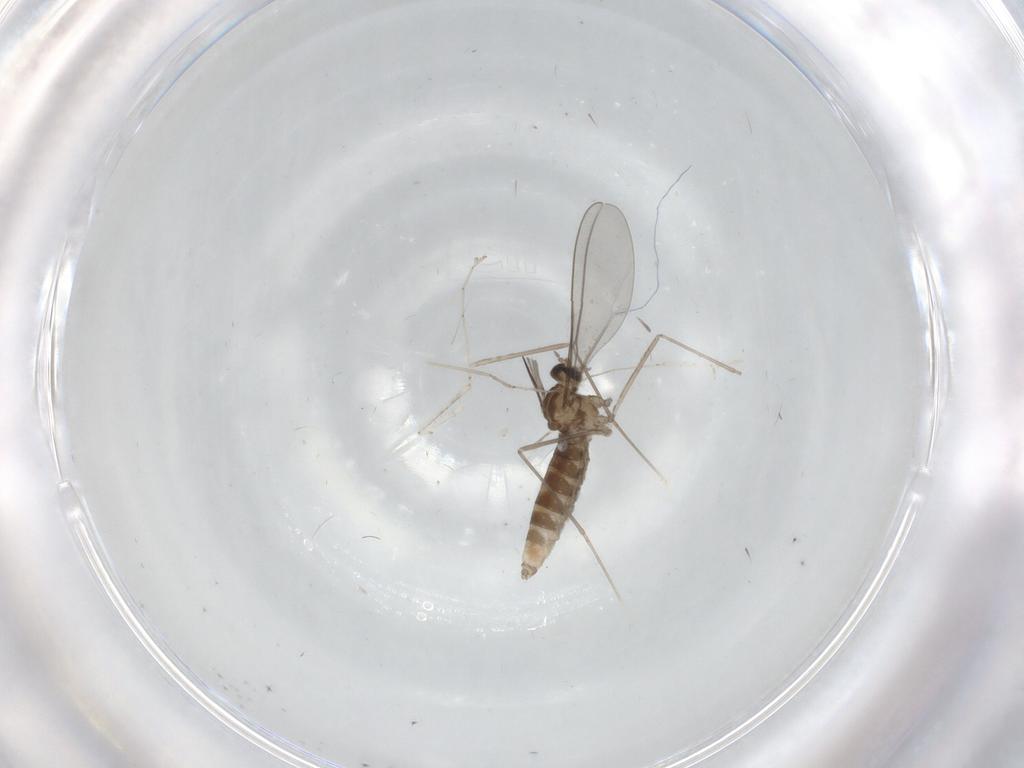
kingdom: Animalia
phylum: Arthropoda
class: Insecta
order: Diptera
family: Cecidomyiidae
